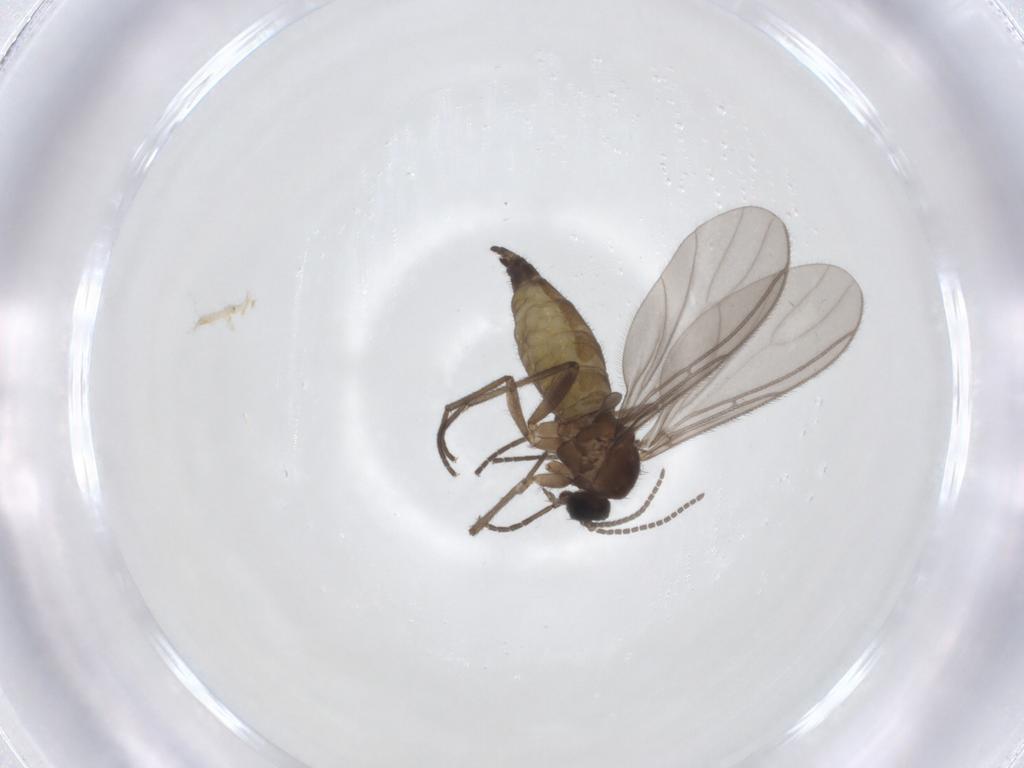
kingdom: Animalia
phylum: Arthropoda
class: Insecta
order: Diptera
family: Sciaridae
